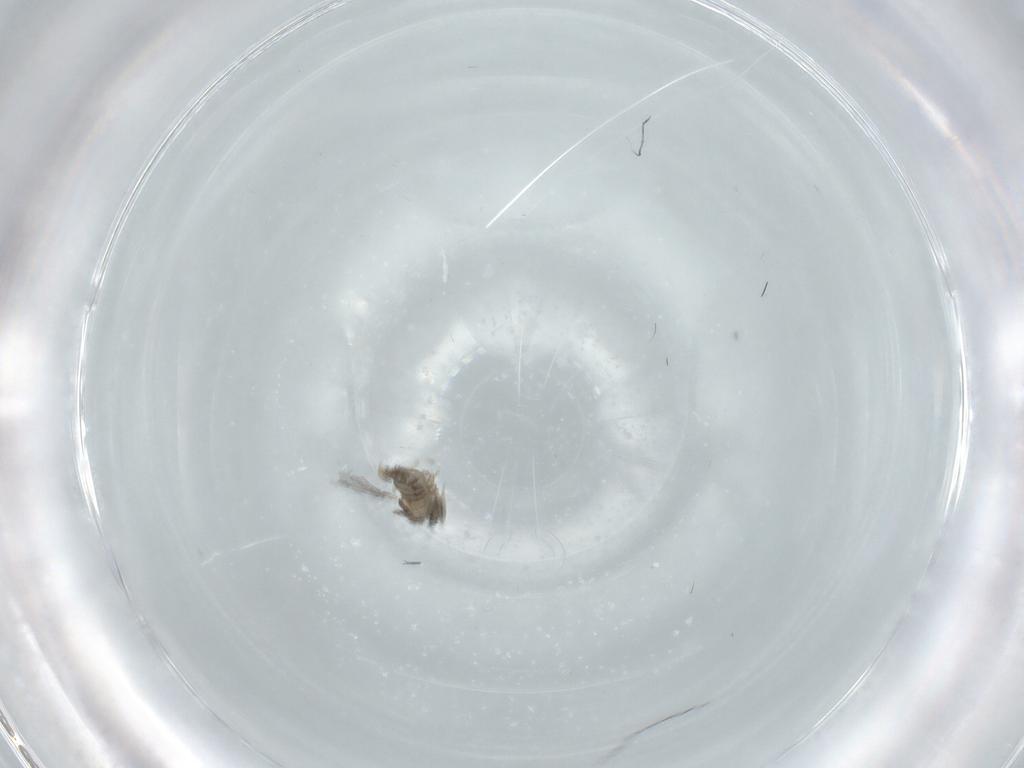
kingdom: Animalia
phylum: Arthropoda
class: Insecta
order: Diptera
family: Cecidomyiidae
